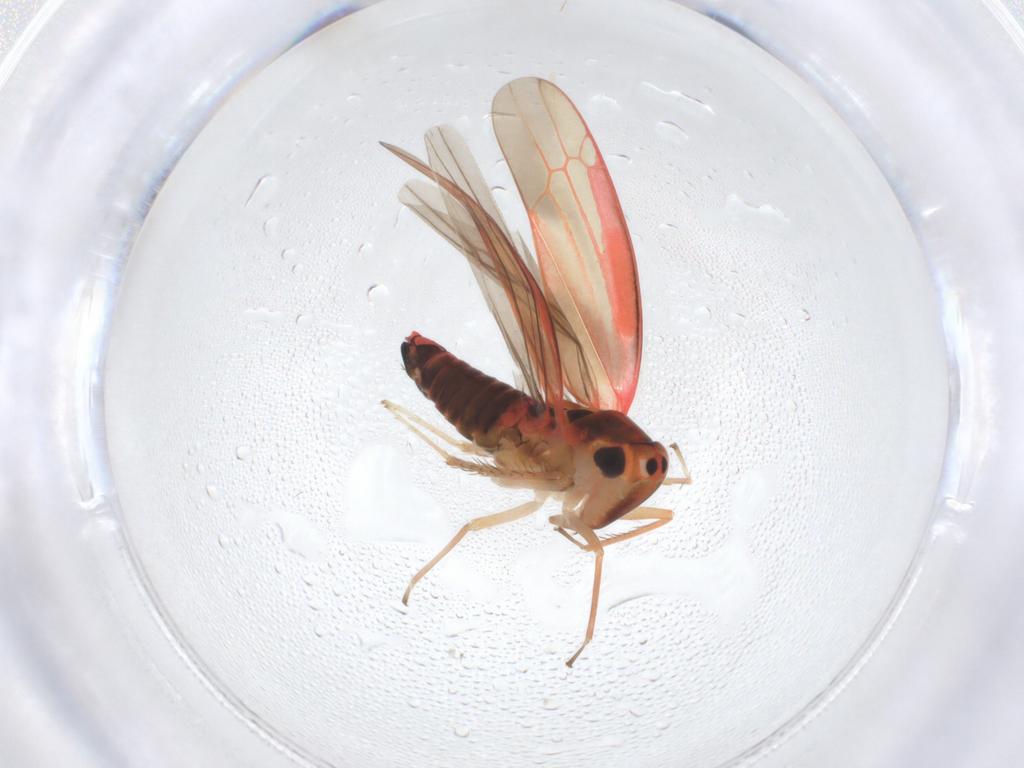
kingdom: Animalia
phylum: Arthropoda
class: Insecta
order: Hemiptera
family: Cicadellidae
